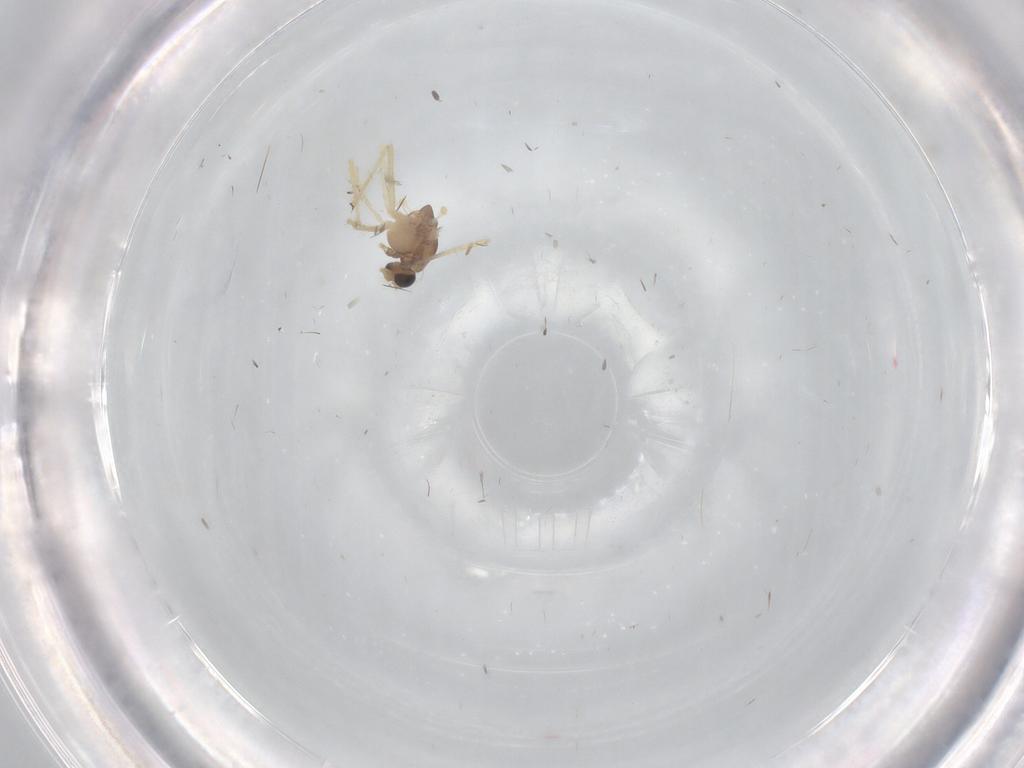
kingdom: Animalia
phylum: Arthropoda
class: Insecta
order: Diptera
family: Chironomidae
